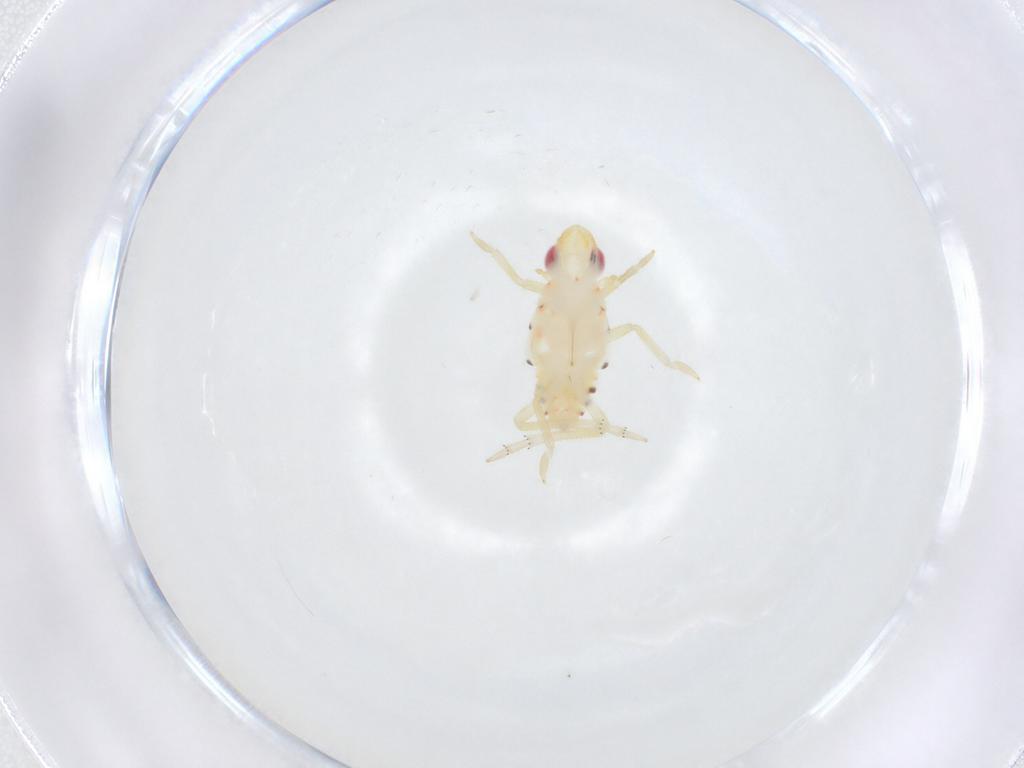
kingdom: Animalia
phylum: Arthropoda
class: Insecta
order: Hemiptera
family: Tropiduchidae
